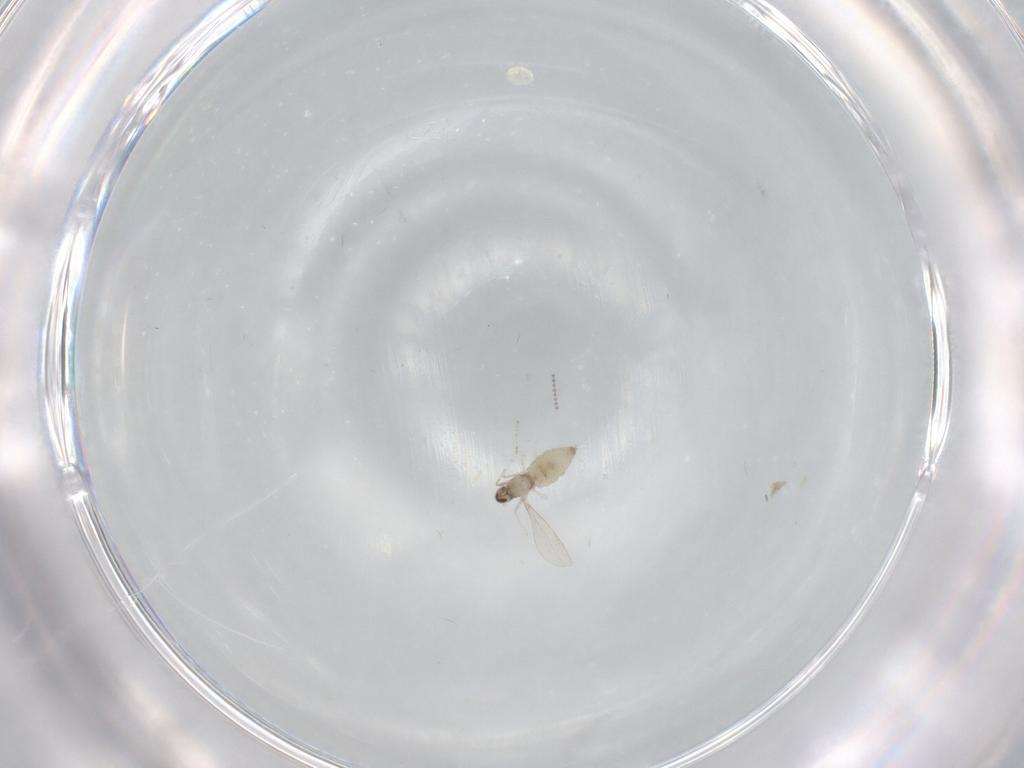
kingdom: Animalia
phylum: Arthropoda
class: Insecta
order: Diptera
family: Cecidomyiidae
